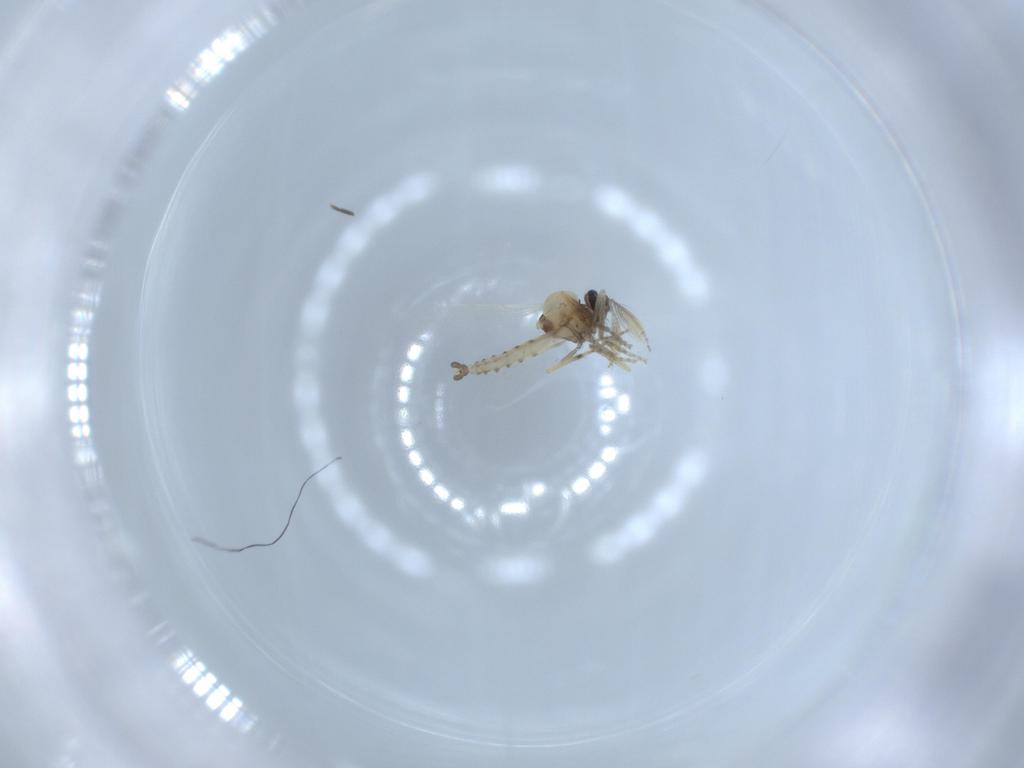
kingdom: Animalia
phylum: Arthropoda
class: Insecta
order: Diptera
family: Ceratopogonidae
